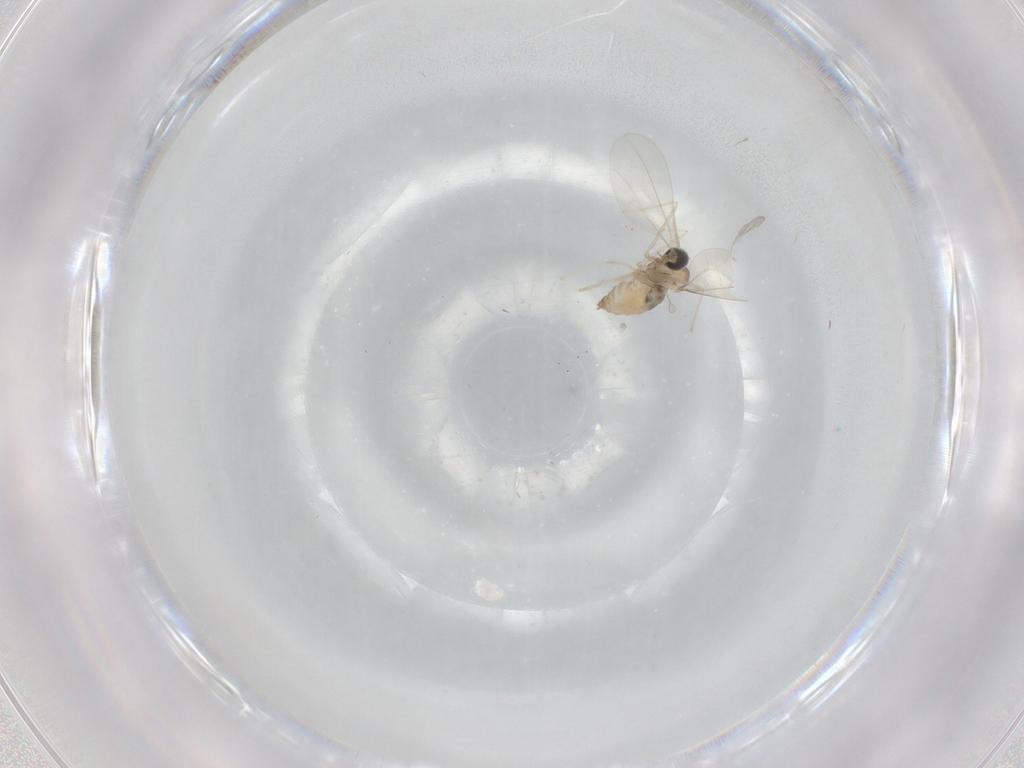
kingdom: Animalia
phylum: Arthropoda
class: Insecta
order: Diptera
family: Cecidomyiidae
